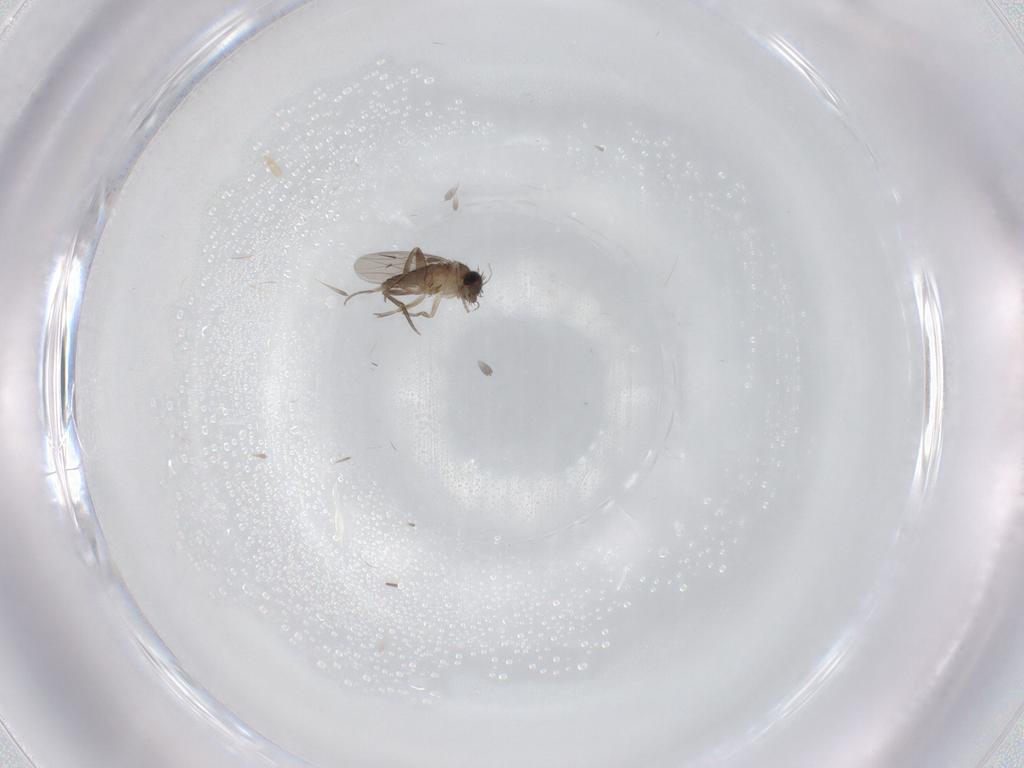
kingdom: Animalia
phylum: Arthropoda
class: Insecta
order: Diptera
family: Phoridae
